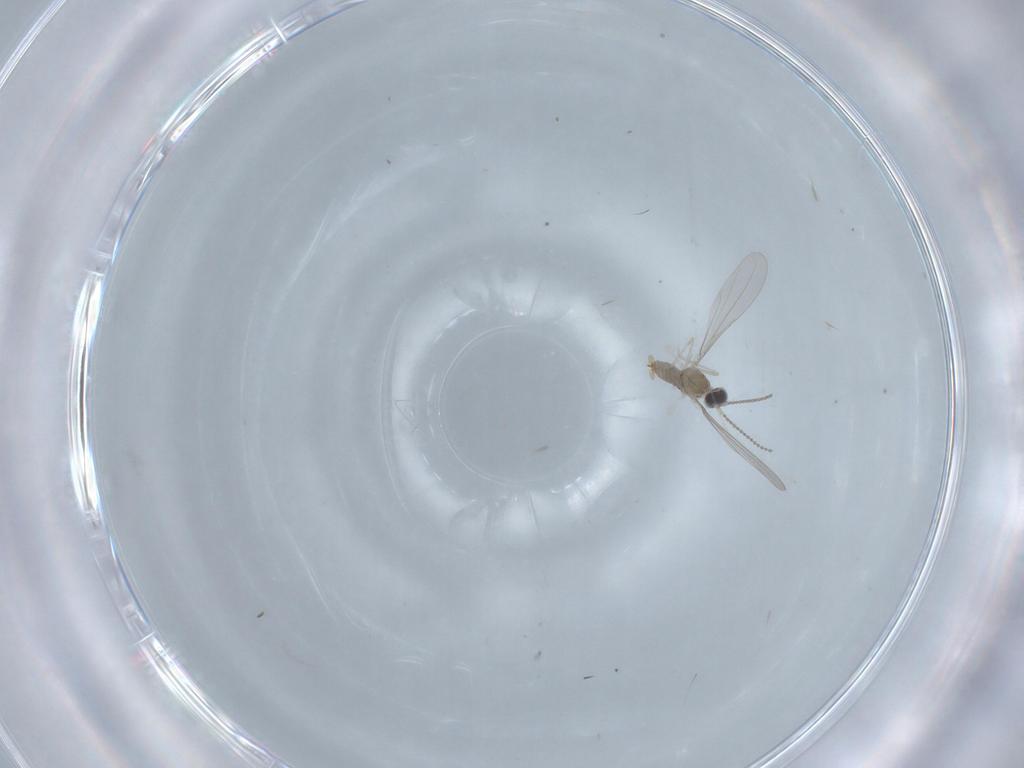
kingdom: Animalia
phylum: Arthropoda
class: Insecta
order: Diptera
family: Cecidomyiidae
